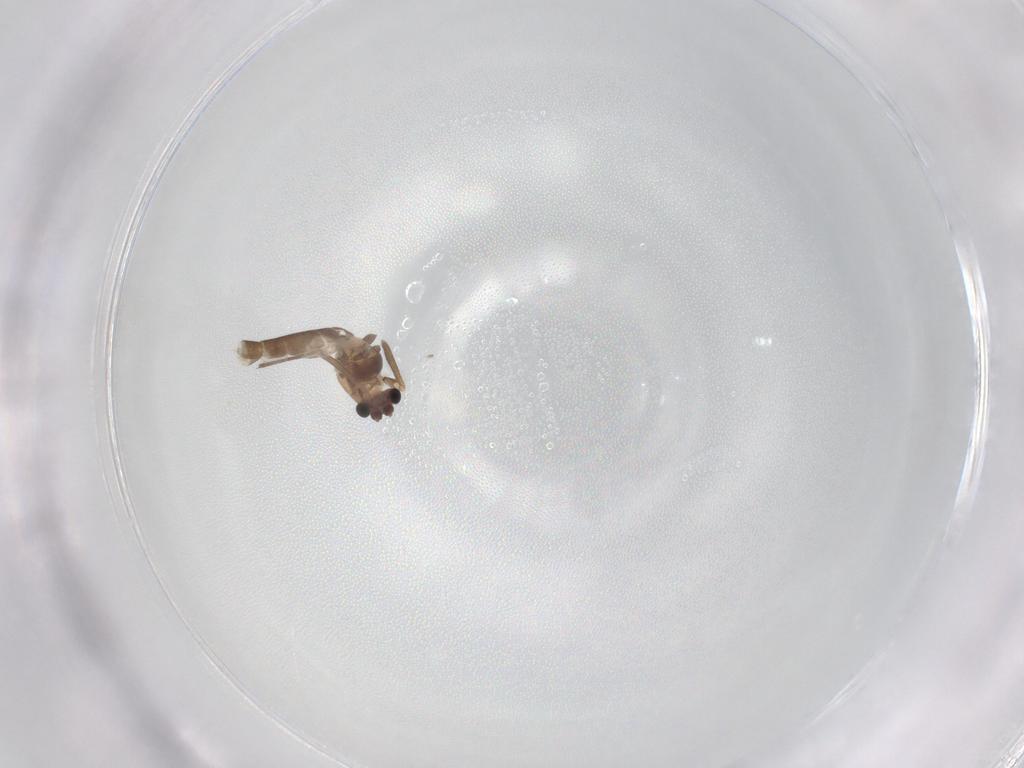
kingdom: Animalia
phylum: Arthropoda
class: Insecta
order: Diptera
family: Chironomidae
